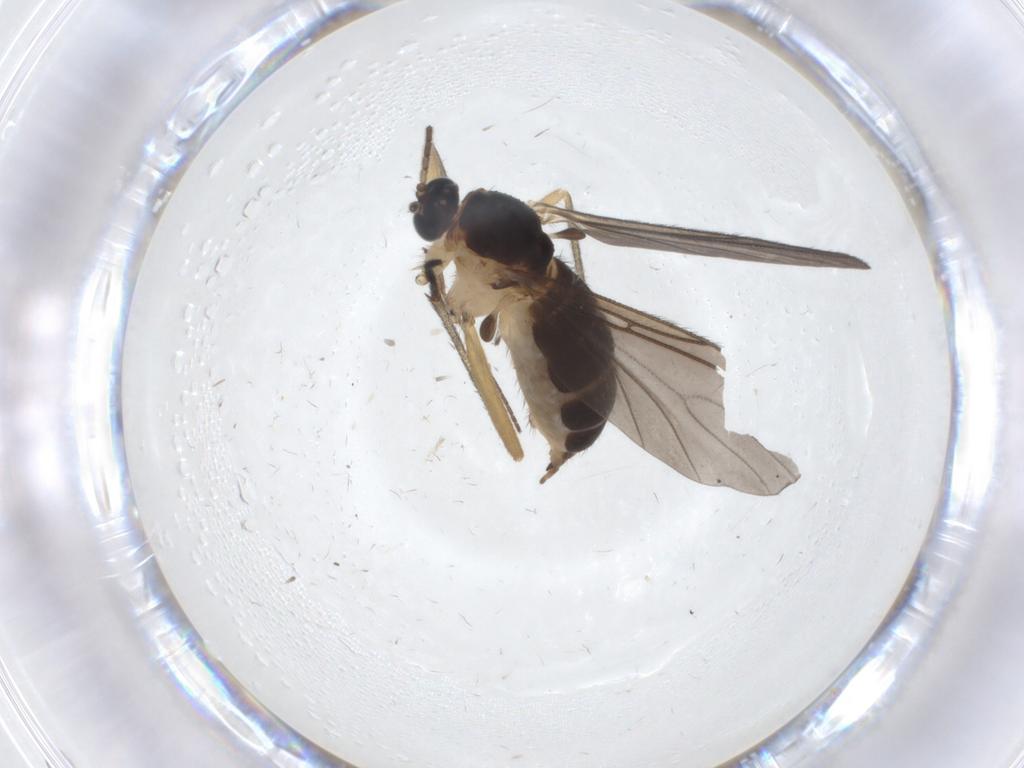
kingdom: Animalia
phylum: Arthropoda
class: Insecta
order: Diptera
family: Sciaridae
